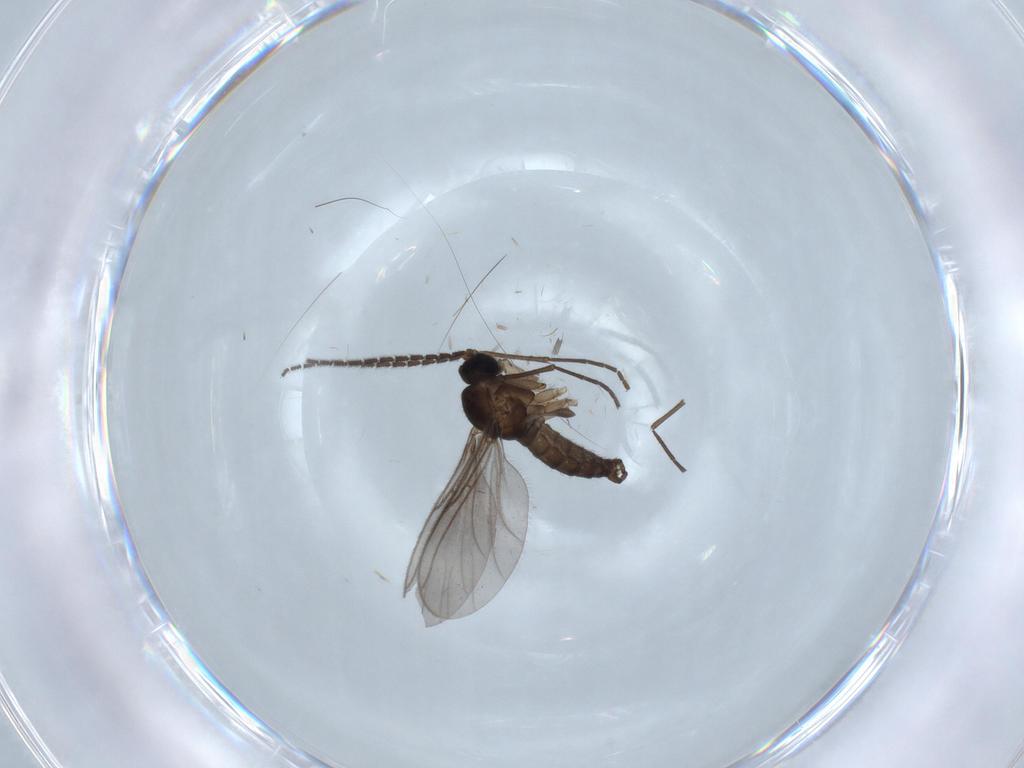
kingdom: Animalia
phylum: Arthropoda
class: Insecta
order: Diptera
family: Sciaridae
